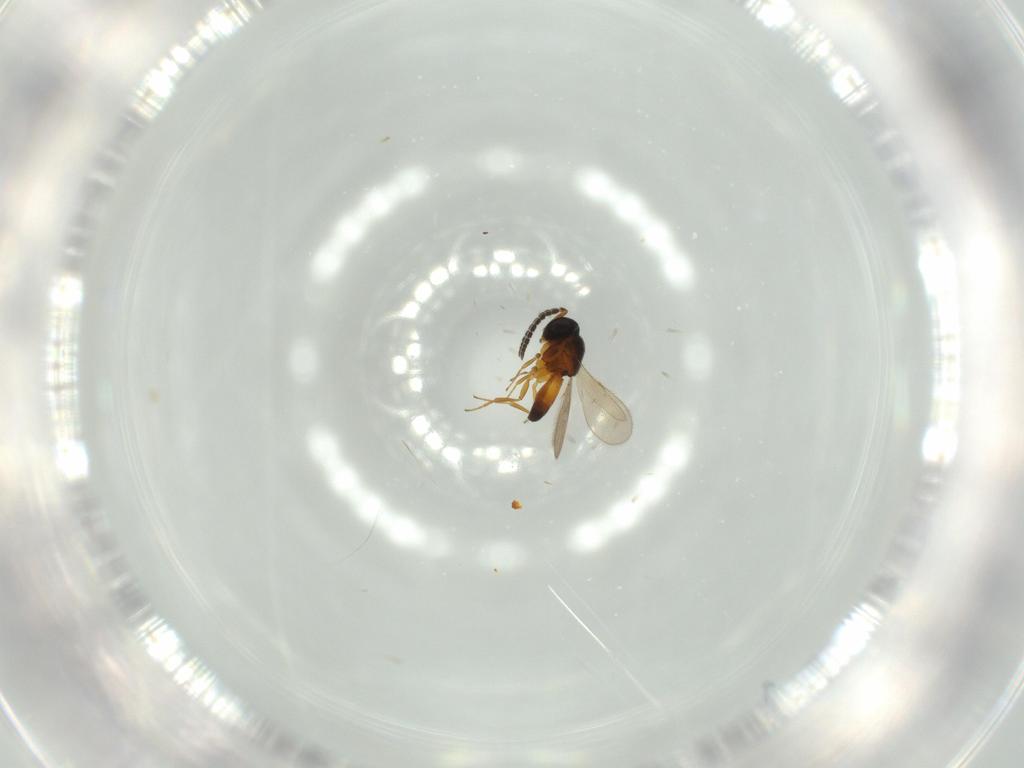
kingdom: Animalia
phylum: Arthropoda
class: Insecta
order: Hymenoptera
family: Scelionidae
